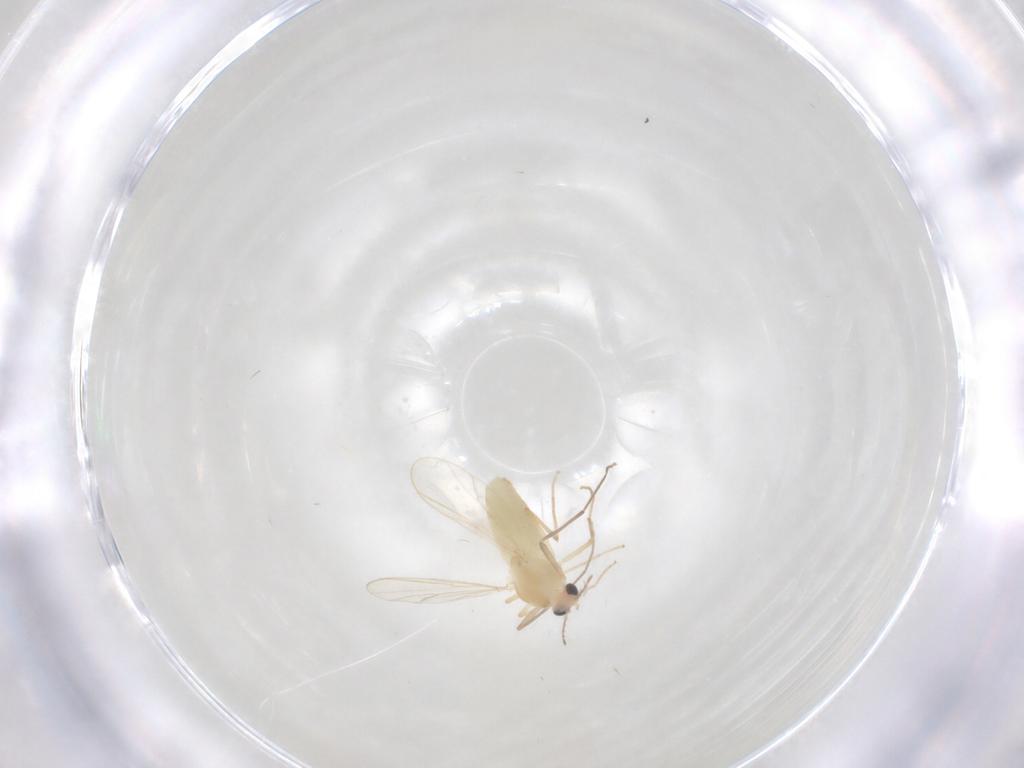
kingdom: Animalia
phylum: Arthropoda
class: Insecta
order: Diptera
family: Chironomidae
